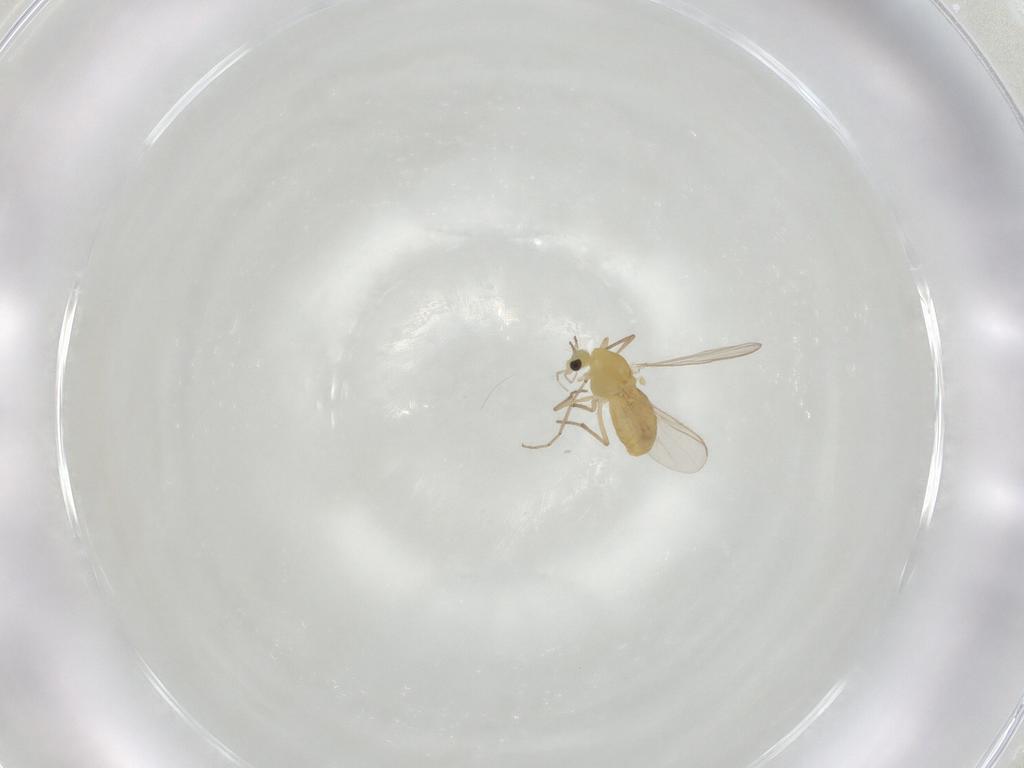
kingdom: Animalia
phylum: Arthropoda
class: Insecta
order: Diptera
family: Chironomidae
